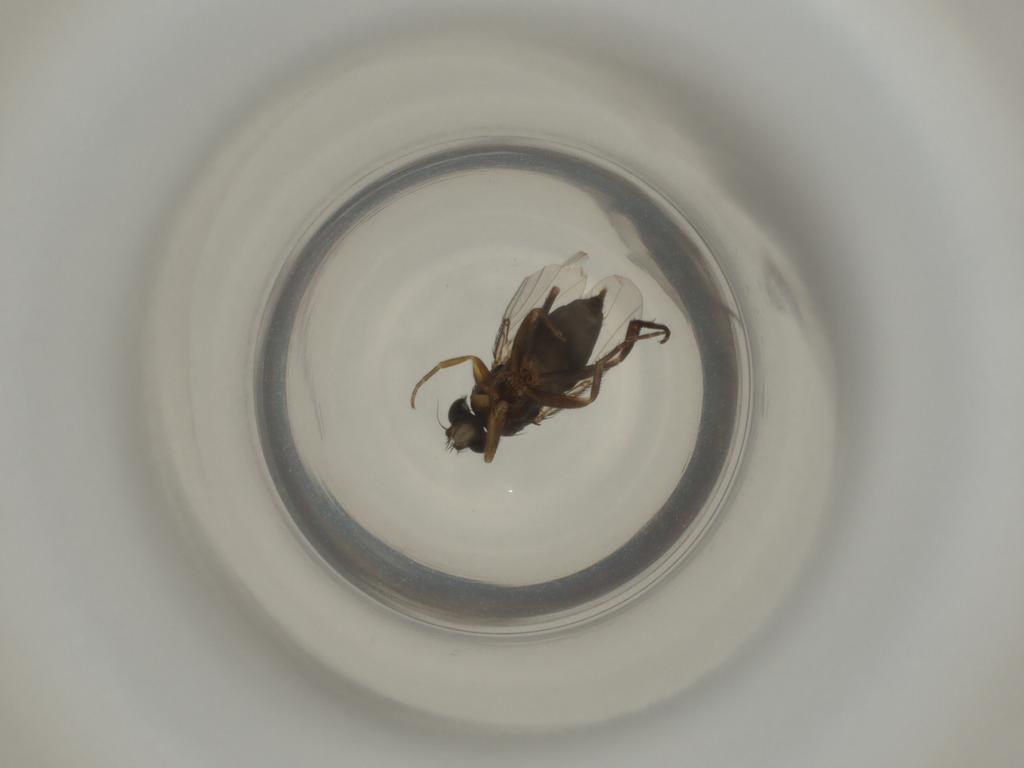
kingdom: Animalia
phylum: Arthropoda
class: Insecta
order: Diptera
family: Phoridae
